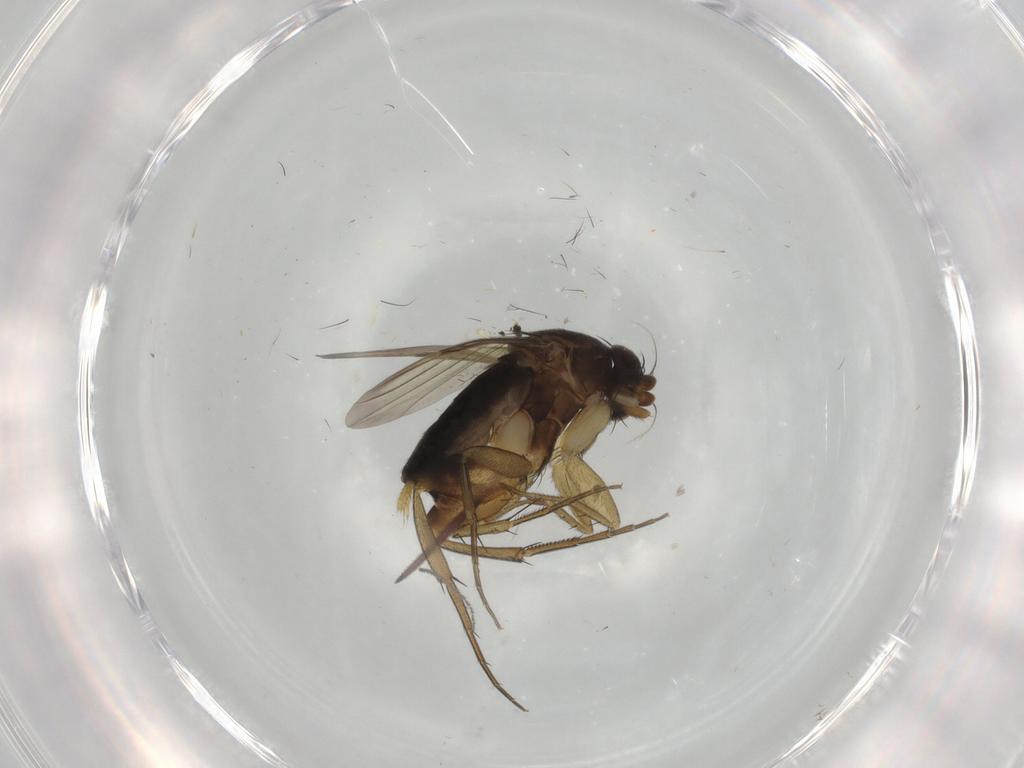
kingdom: Animalia
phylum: Arthropoda
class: Insecta
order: Diptera
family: Phoridae
